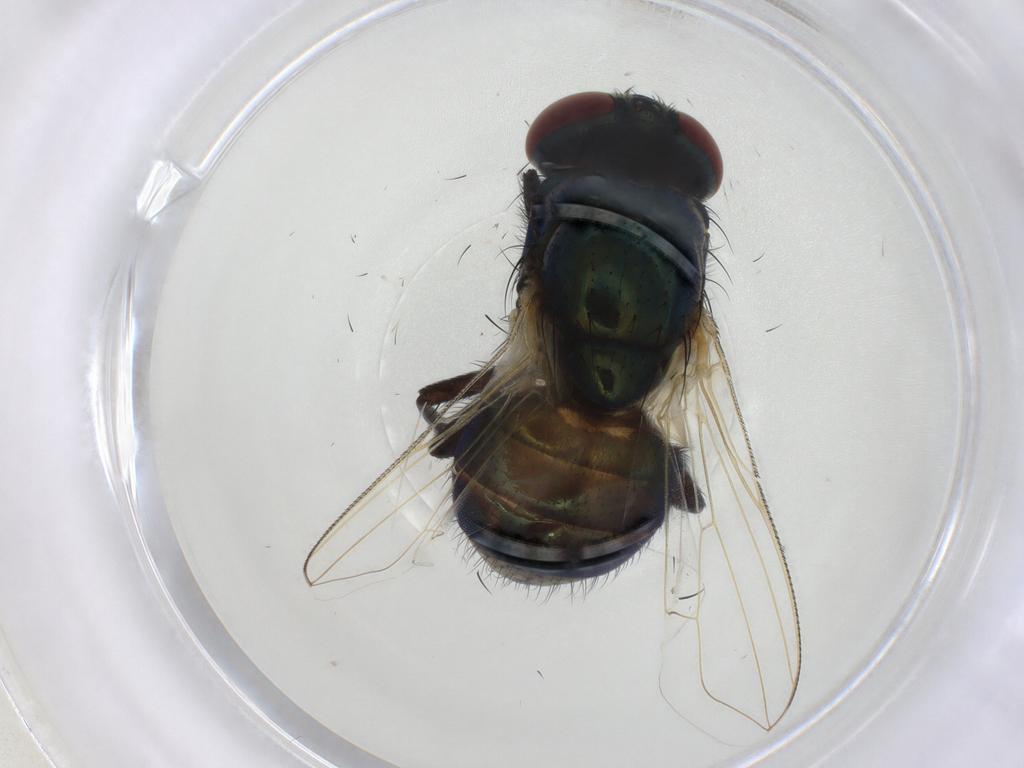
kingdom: Animalia
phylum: Arthropoda
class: Insecta
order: Diptera
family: Muscidae
